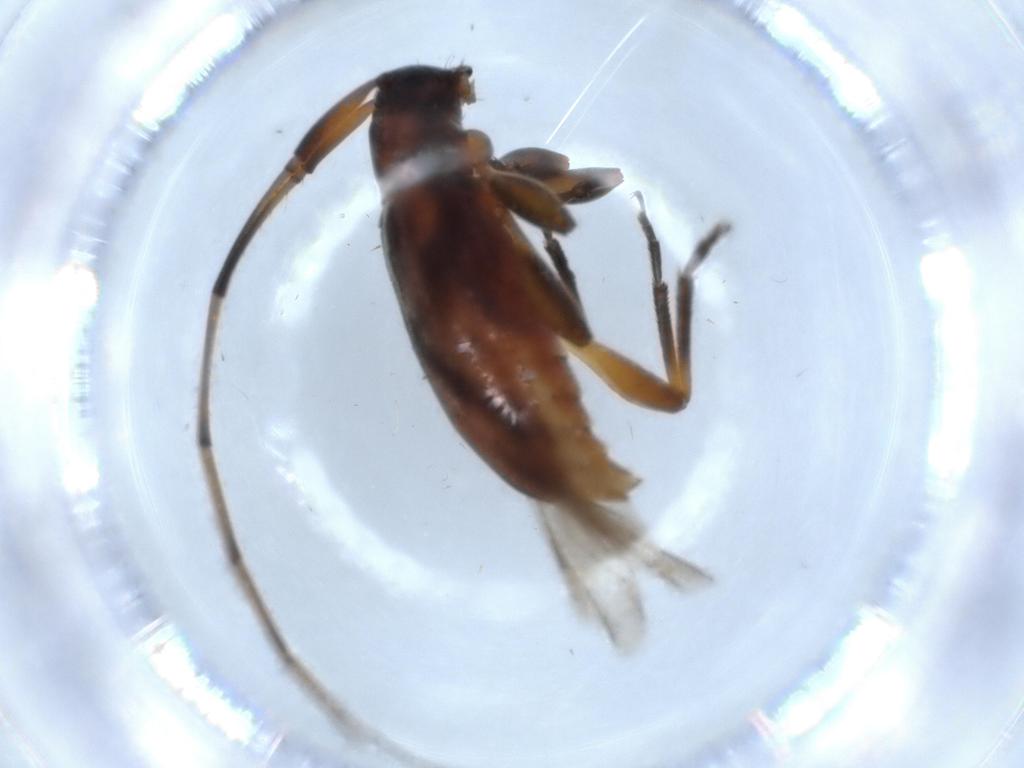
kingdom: Animalia
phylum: Arthropoda
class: Insecta
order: Coleoptera
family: Cerambycidae
